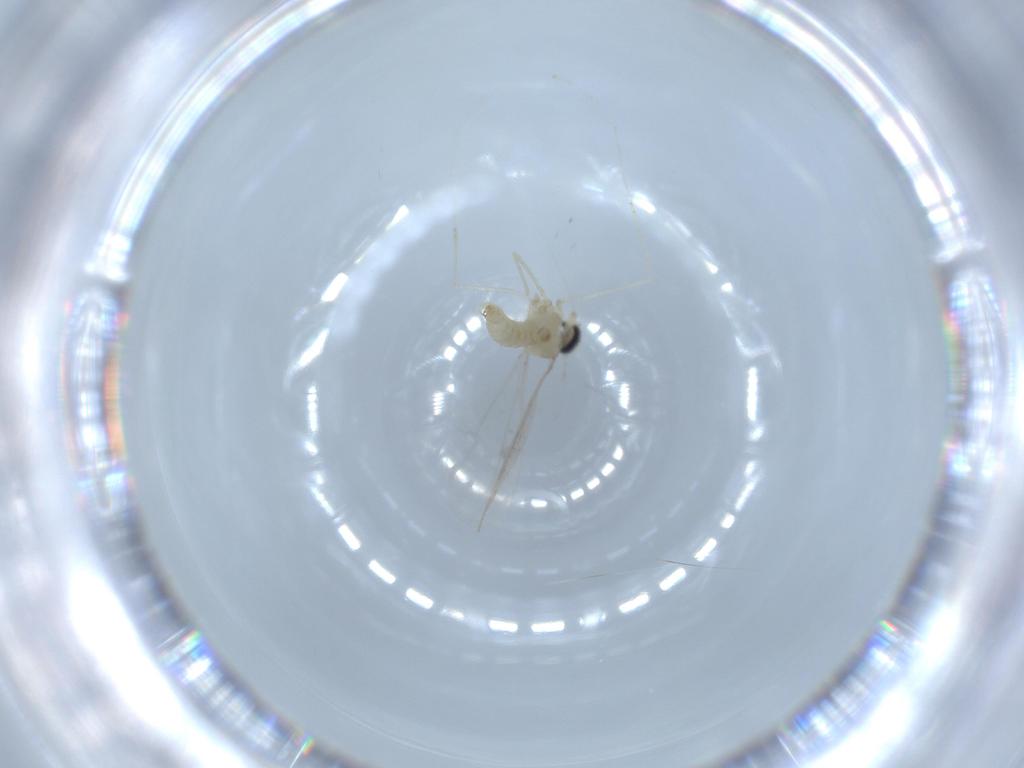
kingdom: Animalia
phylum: Arthropoda
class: Insecta
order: Diptera
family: Cecidomyiidae
